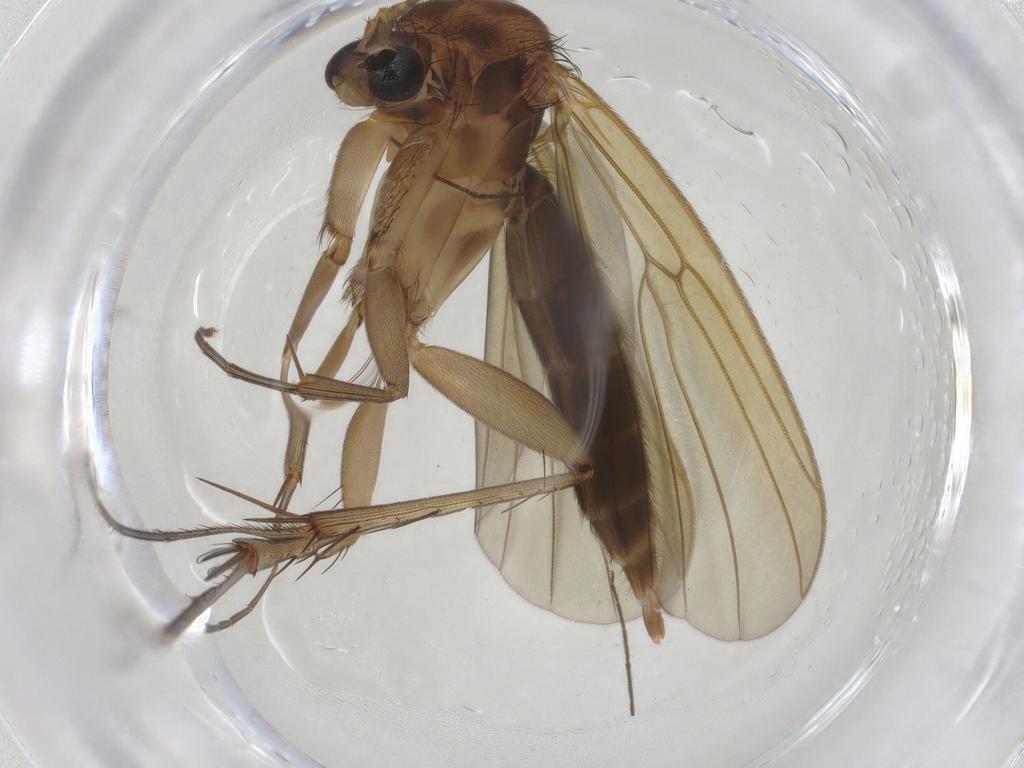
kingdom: Animalia
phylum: Arthropoda
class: Insecta
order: Diptera
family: Mycetophilidae
